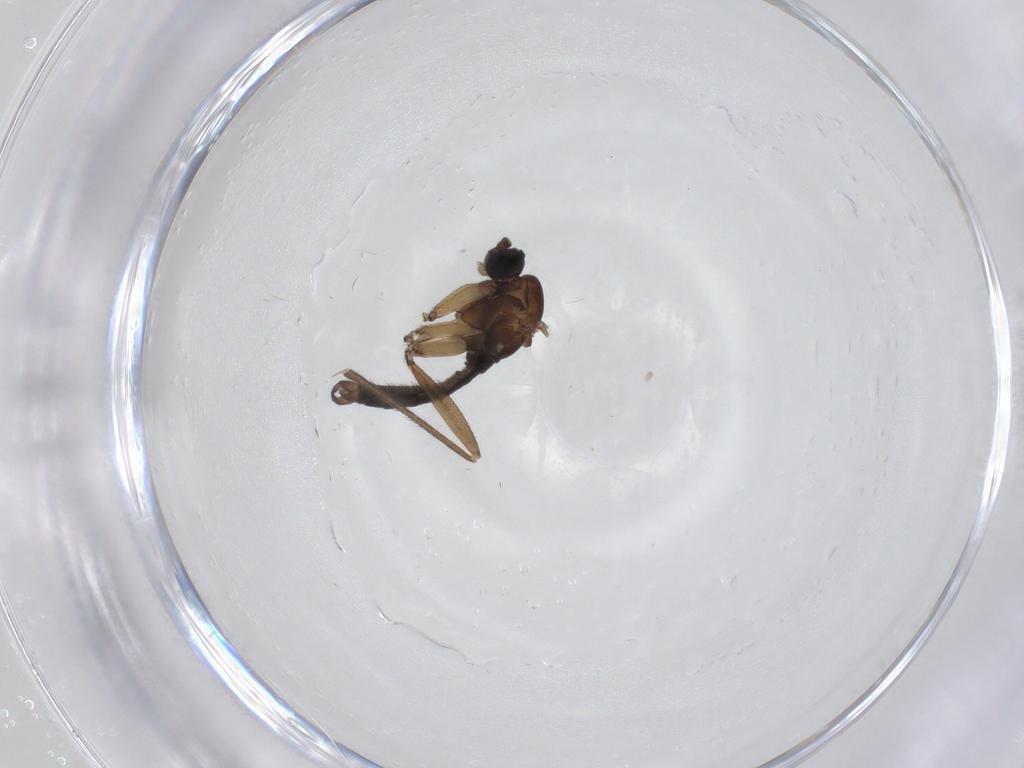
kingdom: Animalia
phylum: Arthropoda
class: Insecta
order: Diptera
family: Sciaridae
